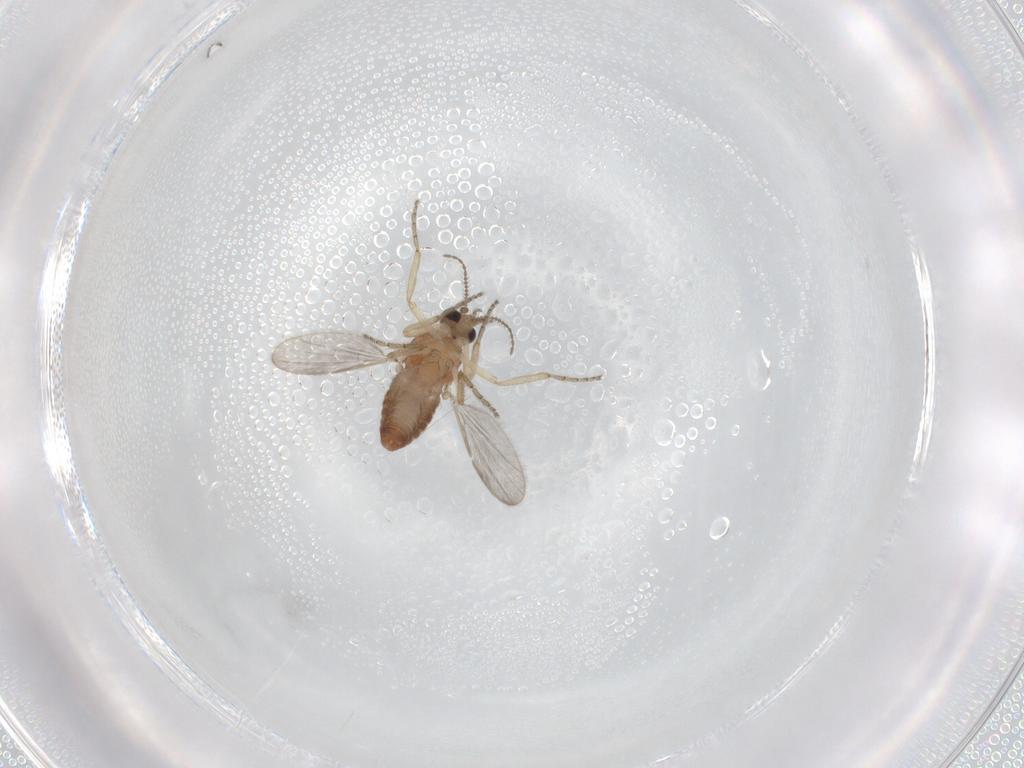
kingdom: Animalia
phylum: Arthropoda
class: Insecta
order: Diptera
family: Ceratopogonidae
